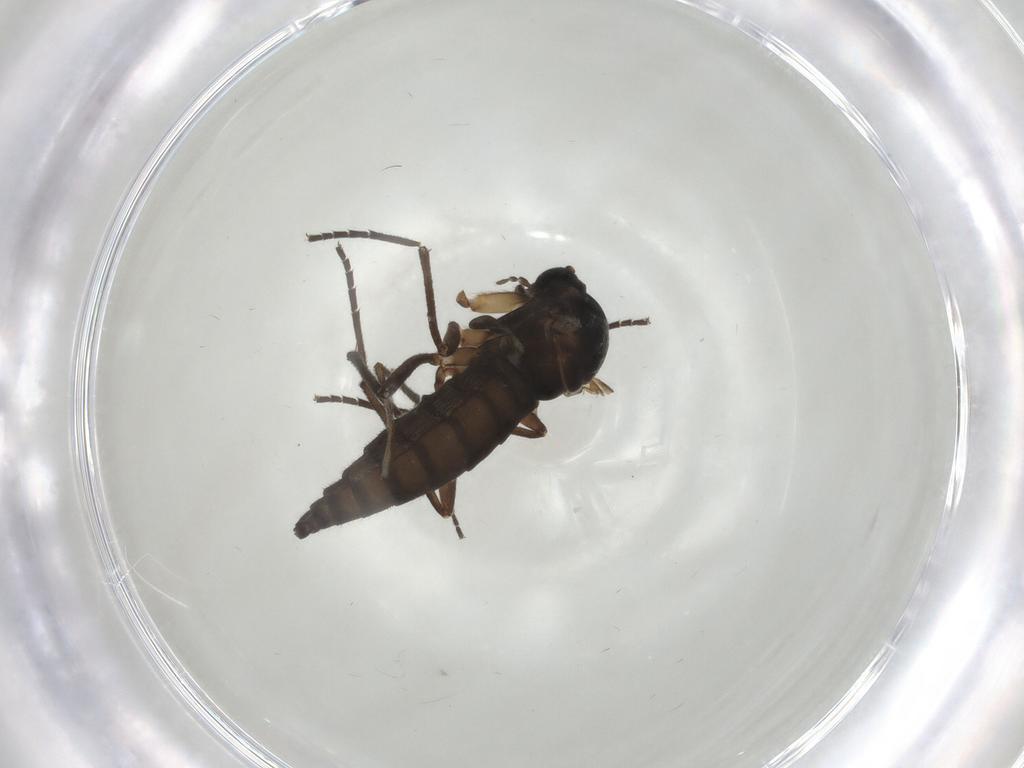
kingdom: Animalia
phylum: Arthropoda
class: Insecta
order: Diptera
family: Sciaridae
